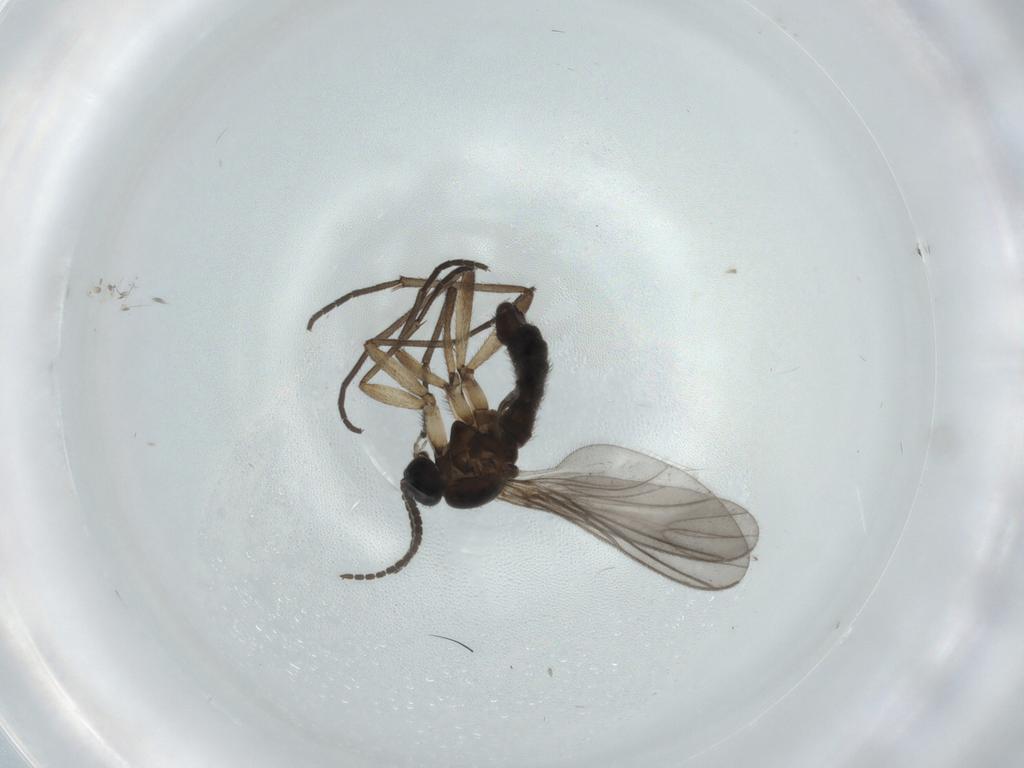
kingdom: Animalia
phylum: Arthropoda
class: Insecta
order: Diptera
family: Sciaridae
